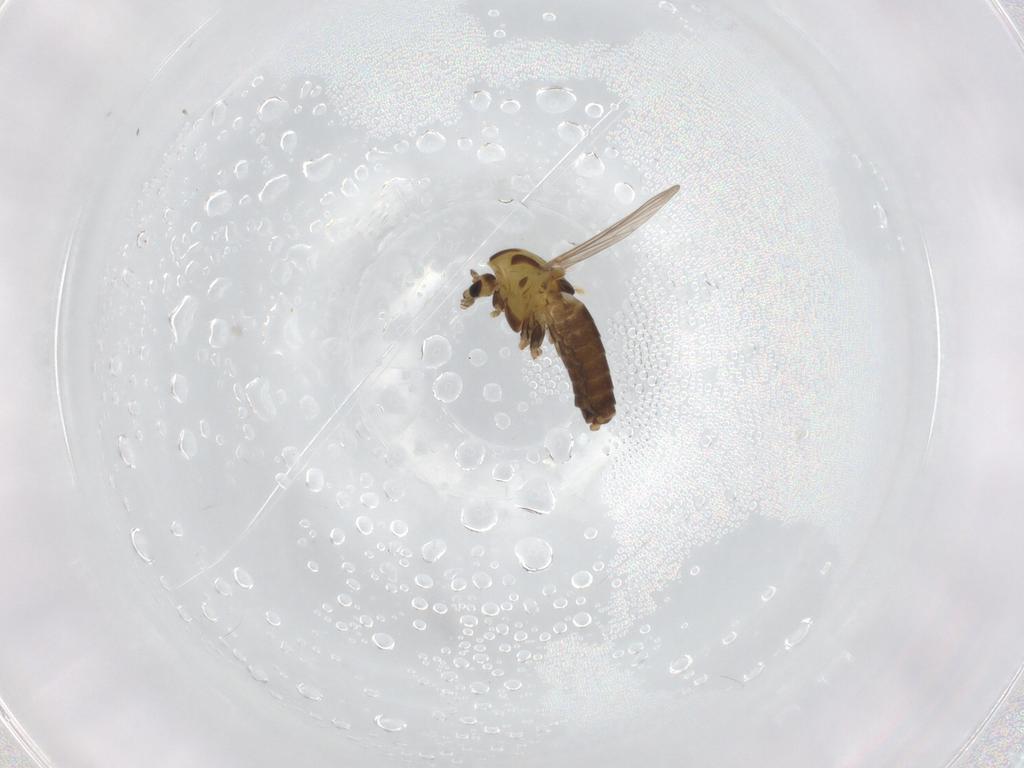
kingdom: Animalia
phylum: Arthropoda
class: Insecta
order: Diptera
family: Chironomidae
